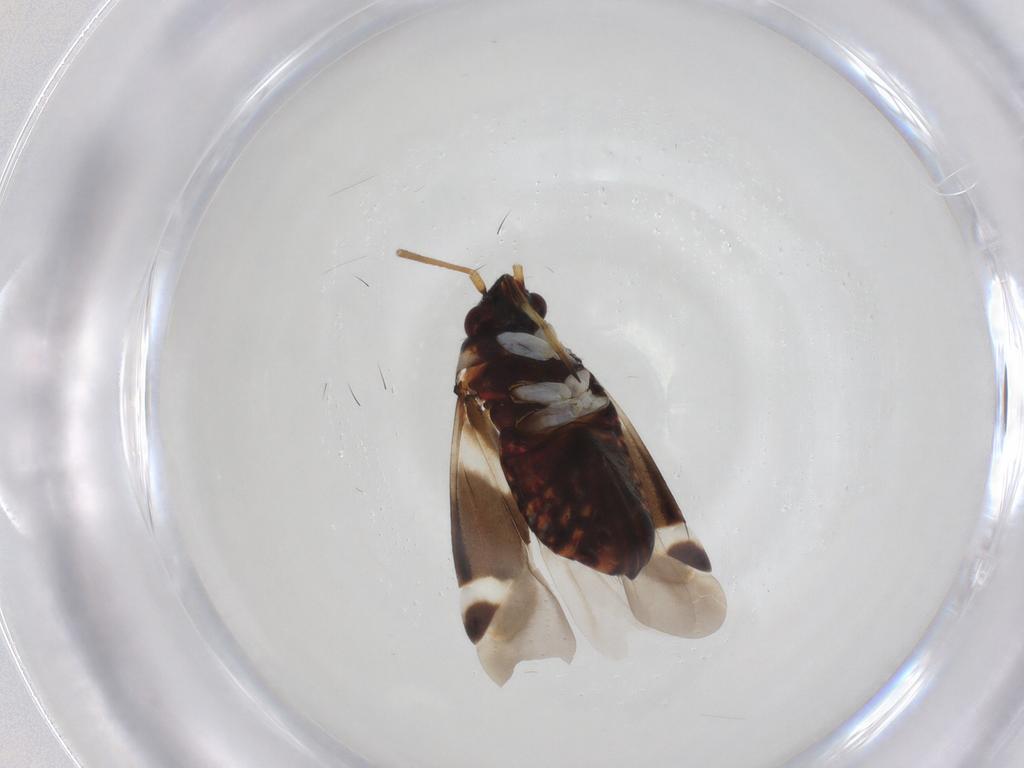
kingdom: Animalia
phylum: Arthropoda
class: Insecta
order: Hemiptera
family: Miridae
